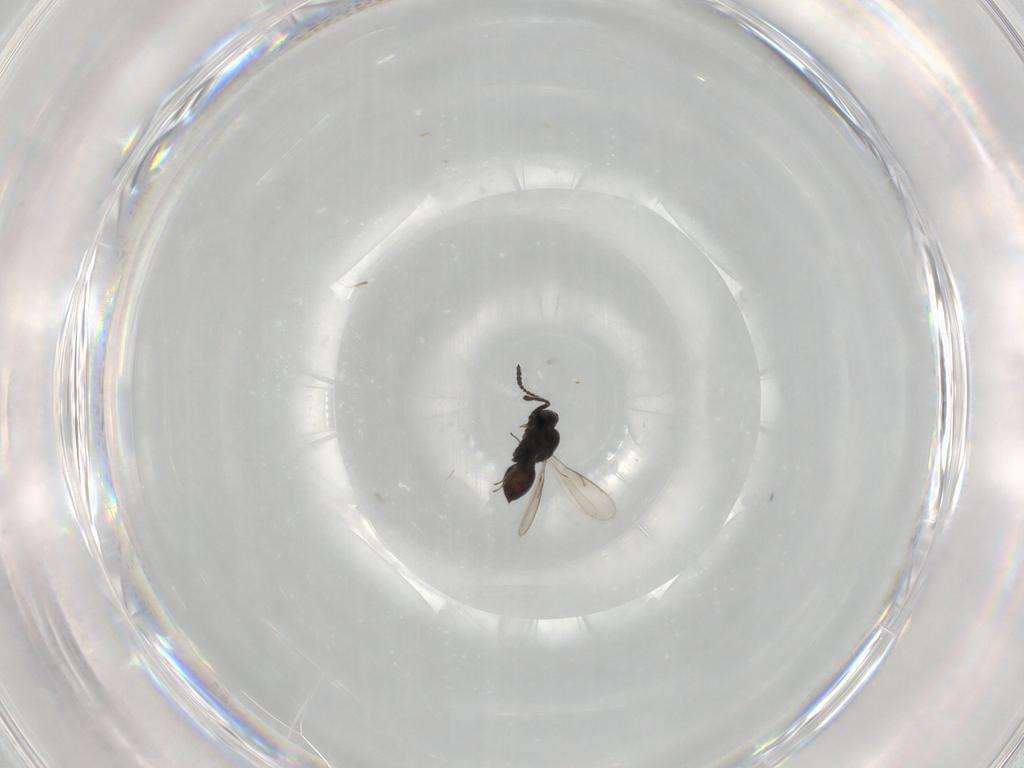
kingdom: Animalia
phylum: Arthropoda
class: Insecta
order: Hymenoptera
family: Scelionidae
